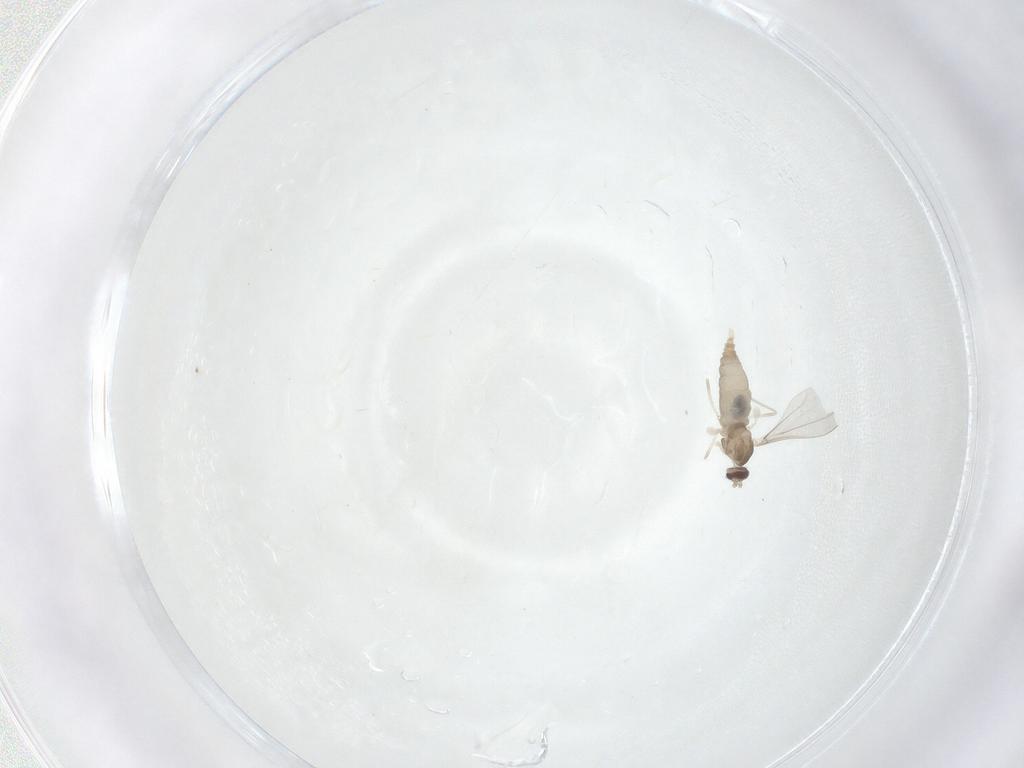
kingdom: Animalia
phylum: Arthropoda
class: Insecta
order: Diptera
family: Cecidomyiidae
